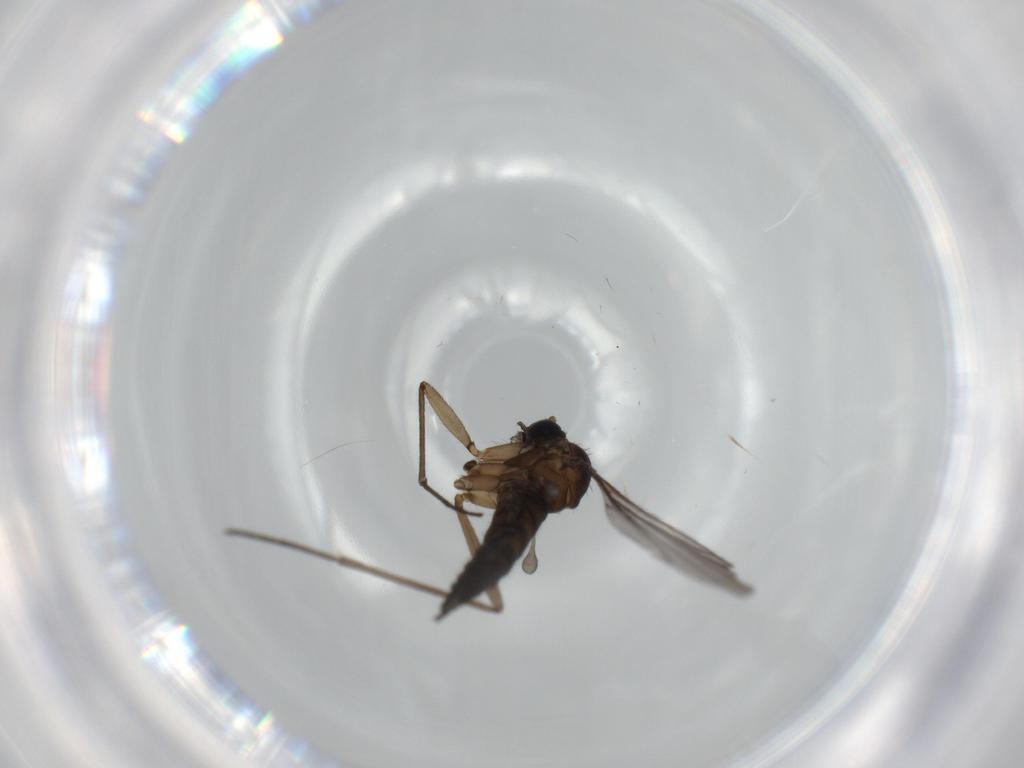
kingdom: Animalia
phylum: Arthropoda
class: Insecta
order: Diptera
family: Sciaridae
